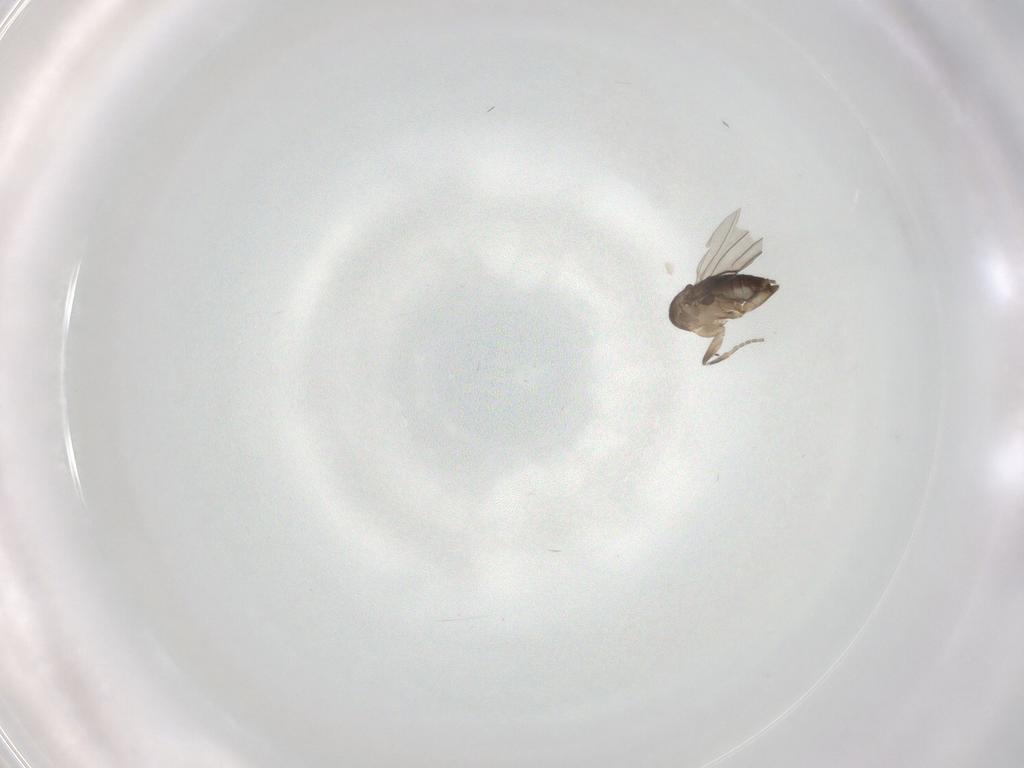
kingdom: Animalia
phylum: Arthropoda
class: Insecta
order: Diptera
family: Phoridae
